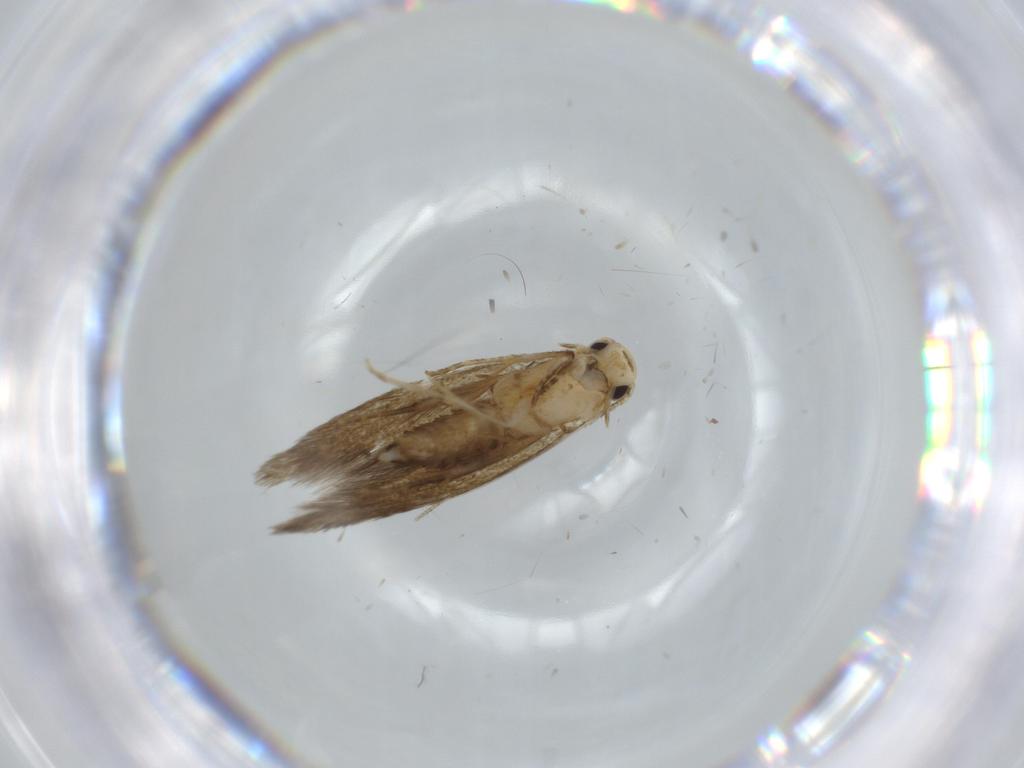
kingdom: Animalia
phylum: Arthropoda
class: Insecta
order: Lepidoptera
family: Tineidae
